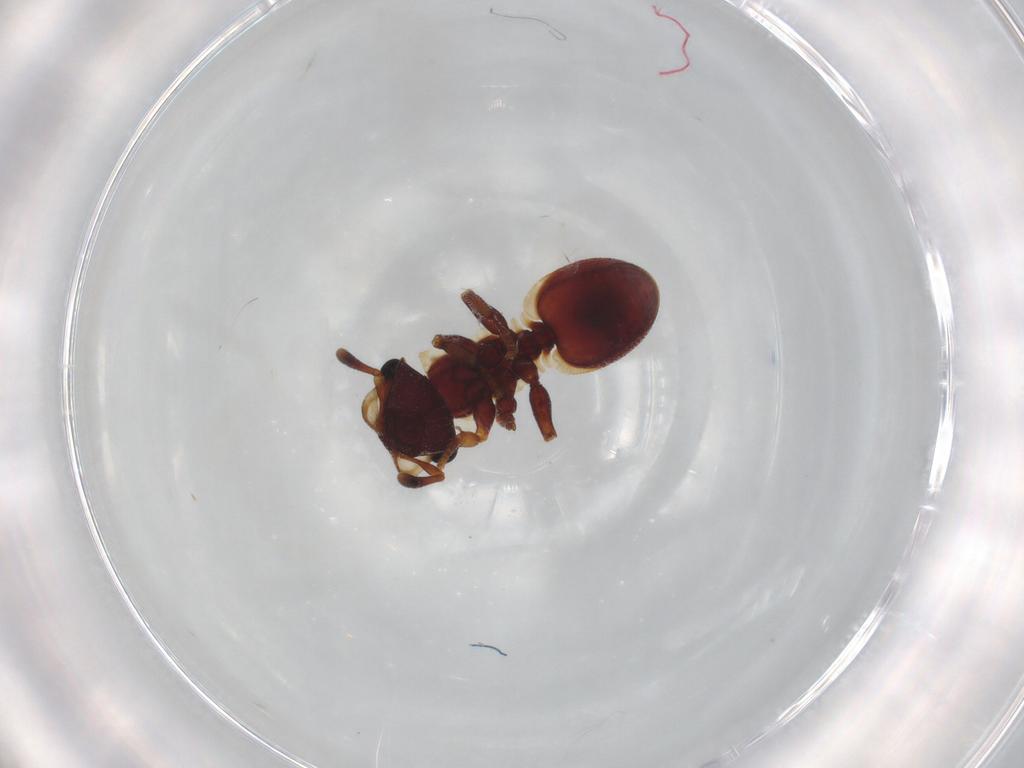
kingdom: Animalia
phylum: Arthropoda
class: Insecta
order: Hymenoptera
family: Formicidae
